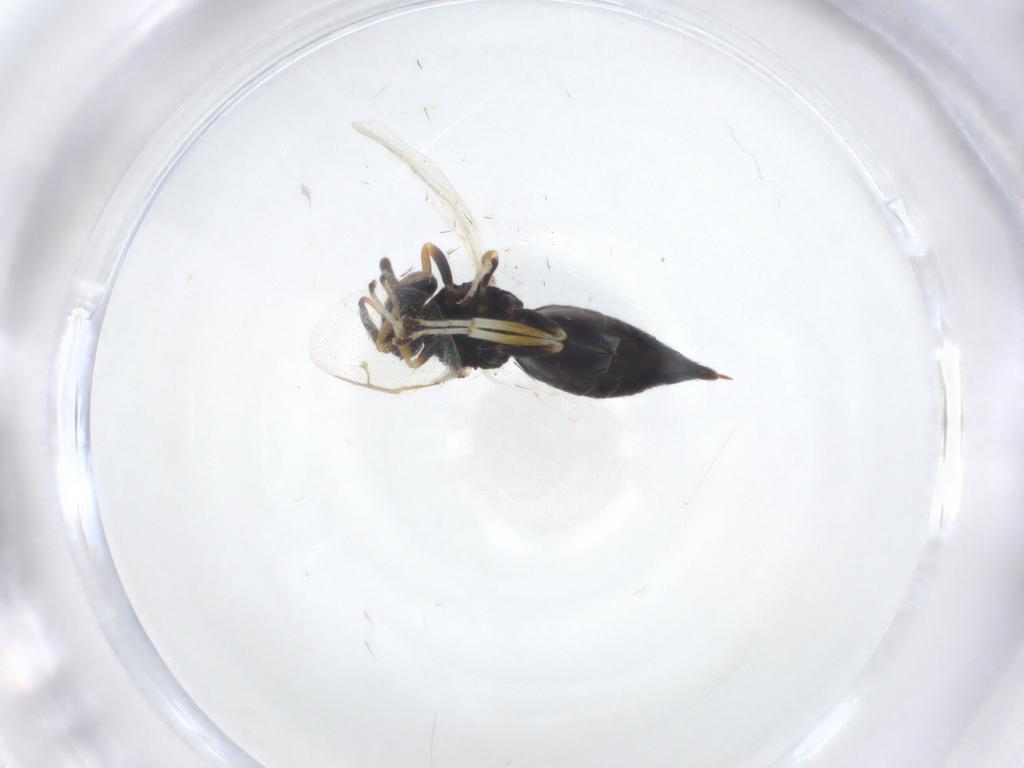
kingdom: Animalia
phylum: Arthropoda
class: Insecta
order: Hymenoptera
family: Pteromalidae
